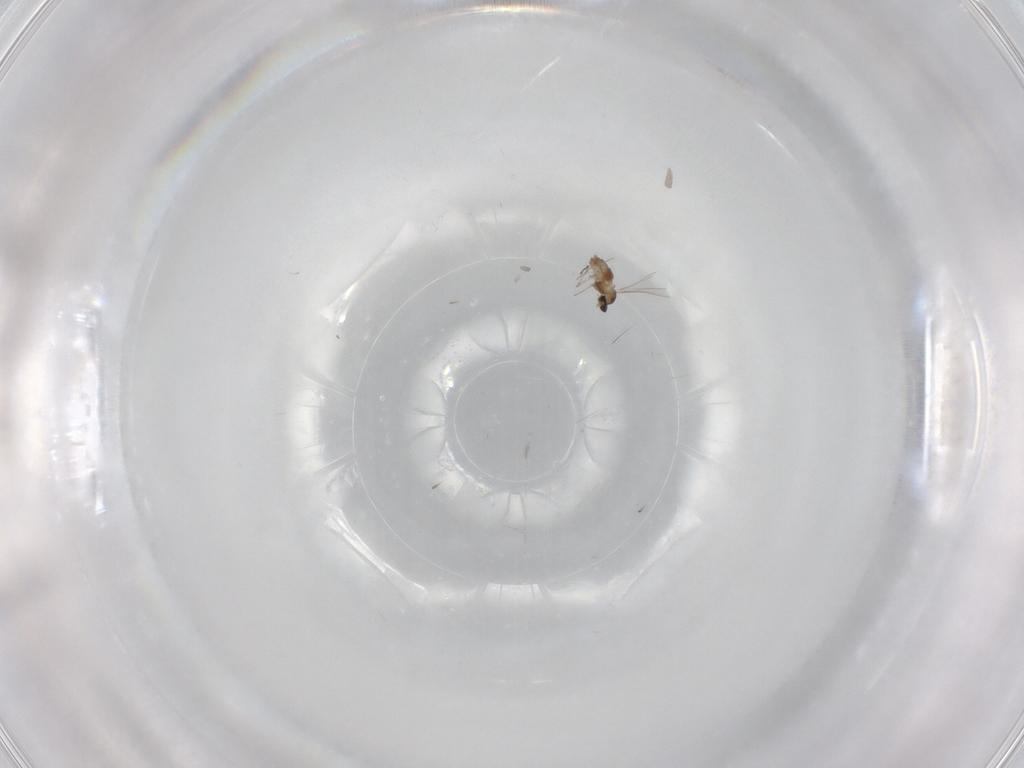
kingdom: Animalia
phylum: Arthropoda
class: Insecta
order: Diptera
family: Cecidomyiidae
